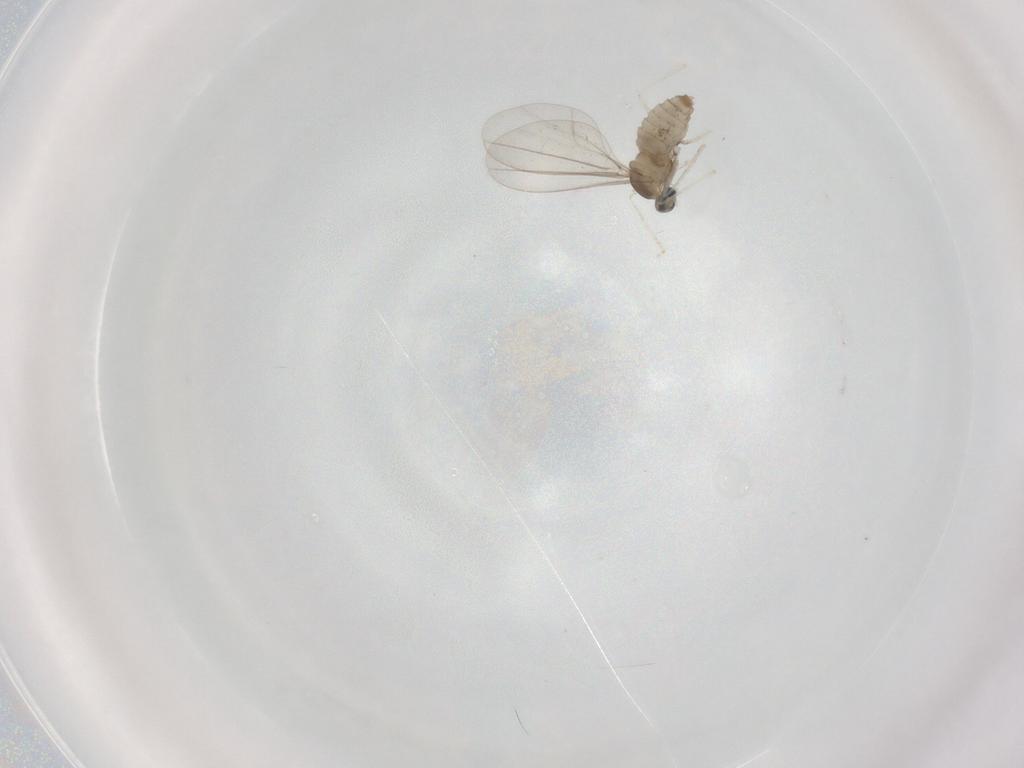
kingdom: Animalia
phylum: Arthropoda
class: Insecta
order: Diptera
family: Cecidomyiidae
